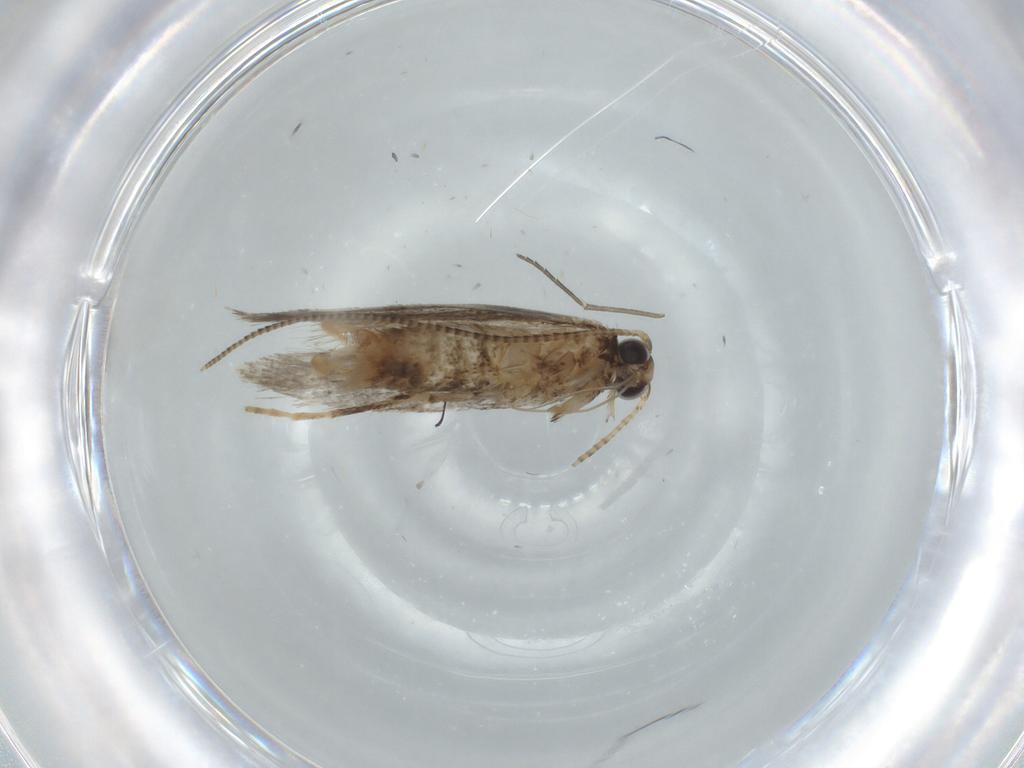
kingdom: Animalia
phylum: Arthropoda
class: Insecta
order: Lepidoptera
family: Gracillariidae
